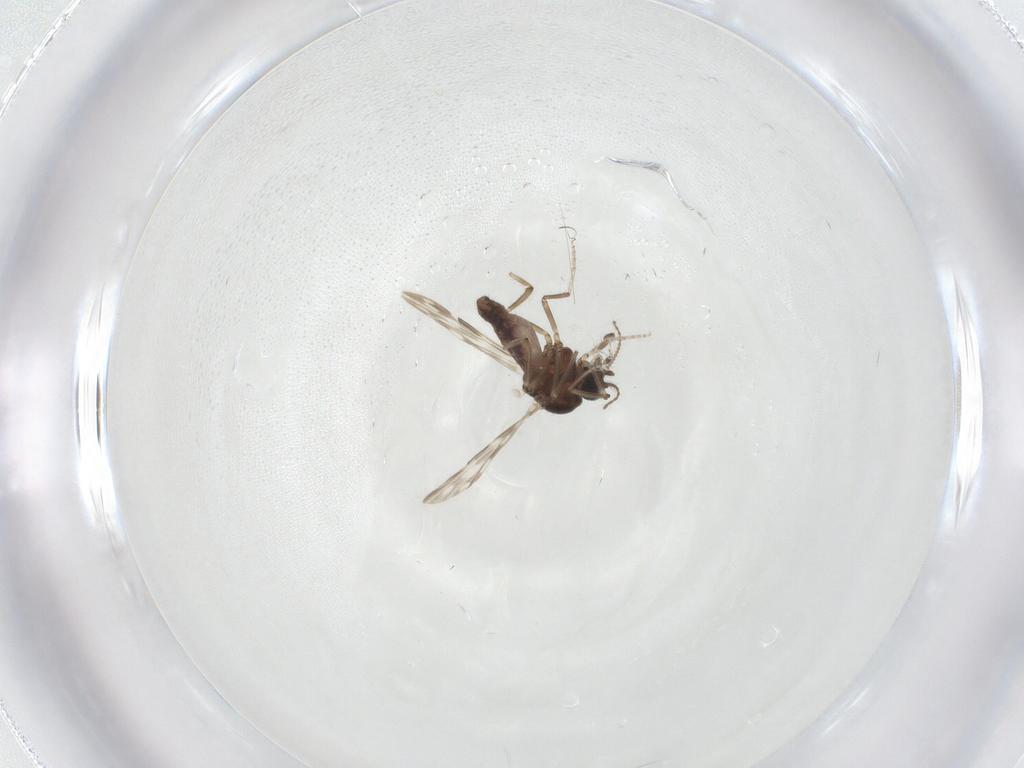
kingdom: Animalia
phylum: Arthropoda
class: Insecta
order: Diptera
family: Ceratopogonidae
